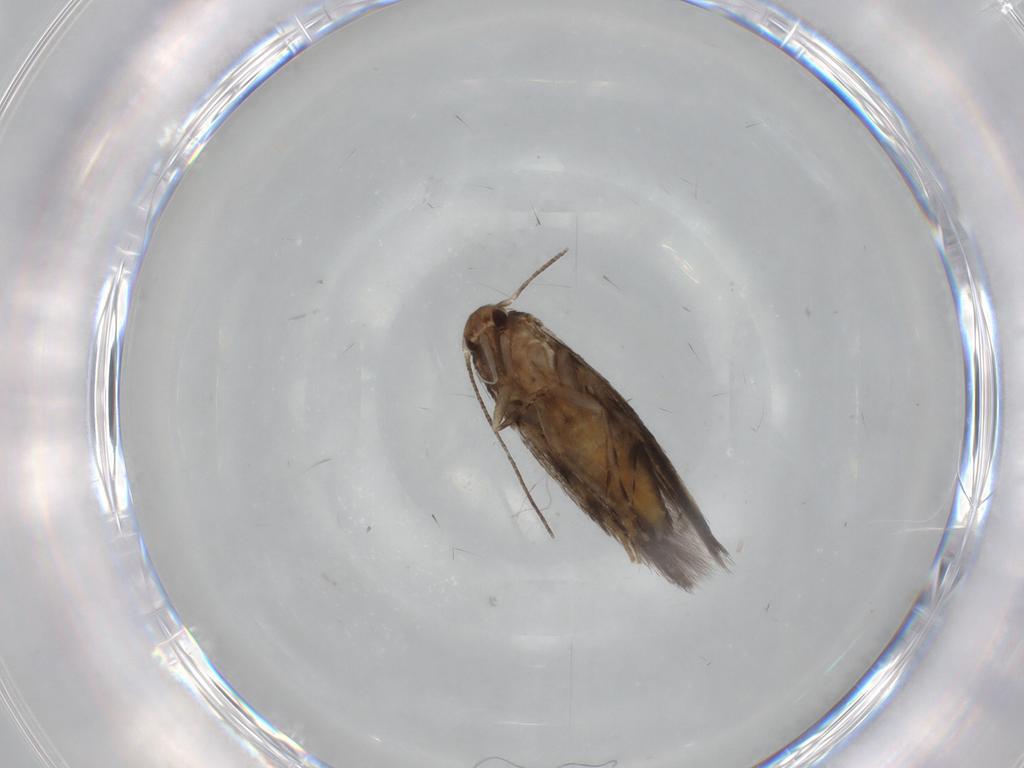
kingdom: Animalia
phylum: Arthropoda
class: Insecta
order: Lepidoptera
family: Elachistidae
